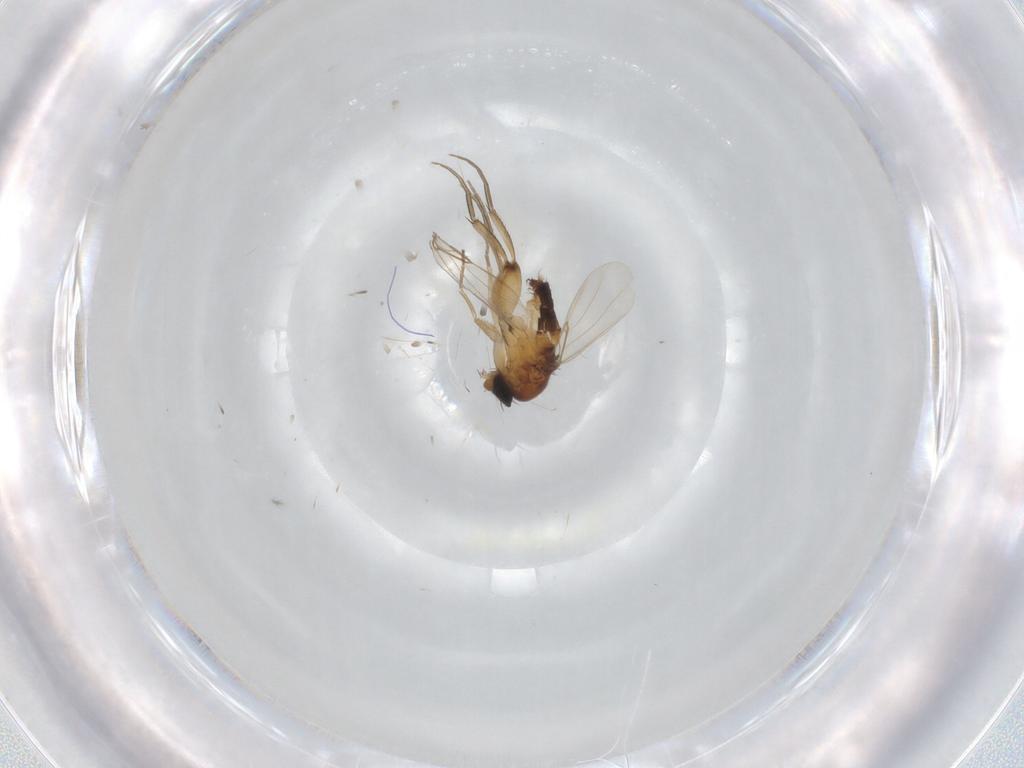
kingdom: Animalia
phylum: Arthropoda
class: Insecta
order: Diptera
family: Phoridae
